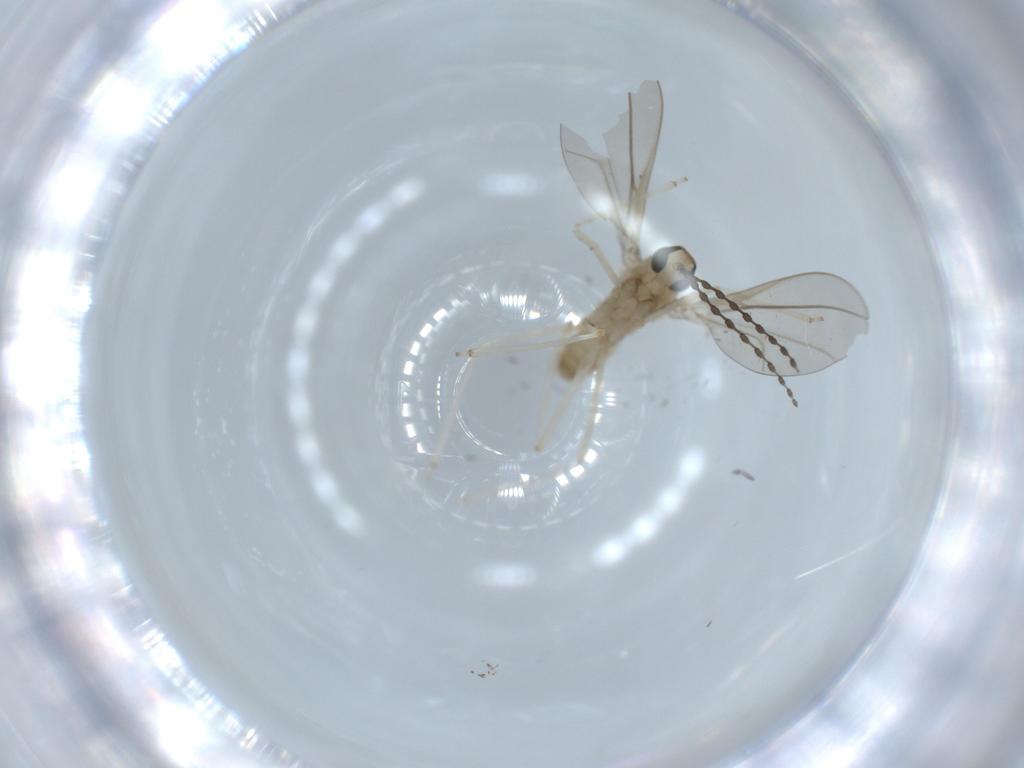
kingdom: Animalia
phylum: Arthropoda
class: Insecta
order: Diptera
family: Cecidomyiidae
